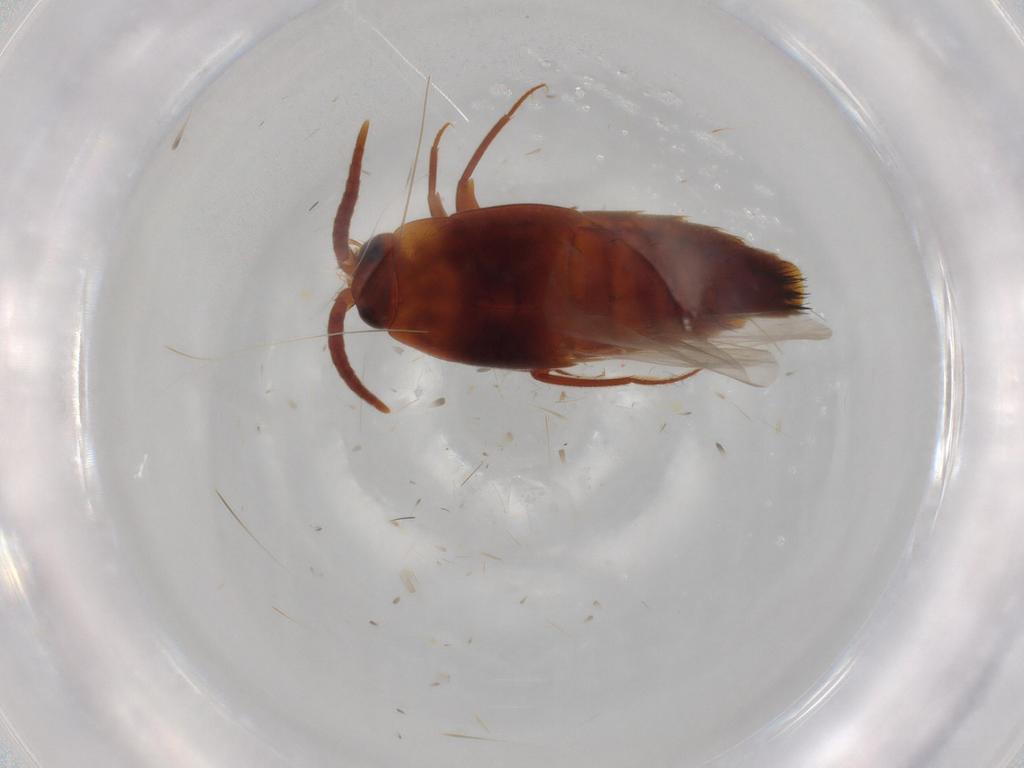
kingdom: Animalia
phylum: Arthropoda
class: Insecta
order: Coleoptera
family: Staphylinidae
